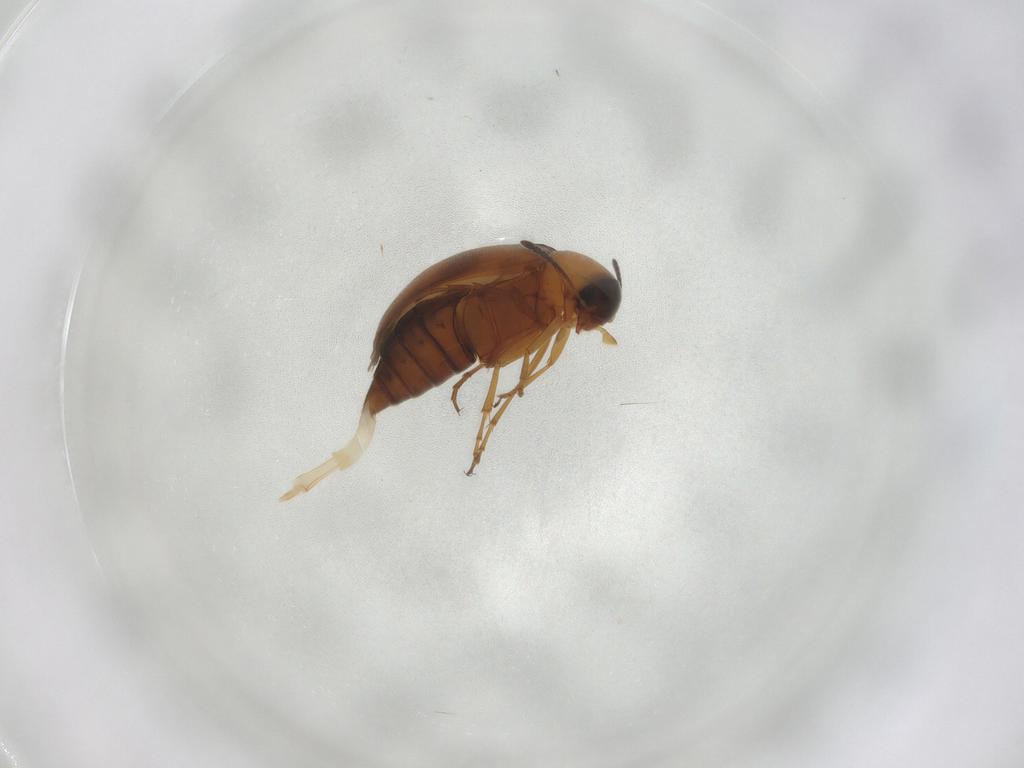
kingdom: Animalia
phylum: Arthropoda
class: Insecta
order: Coleoptera
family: Scraptiidae
